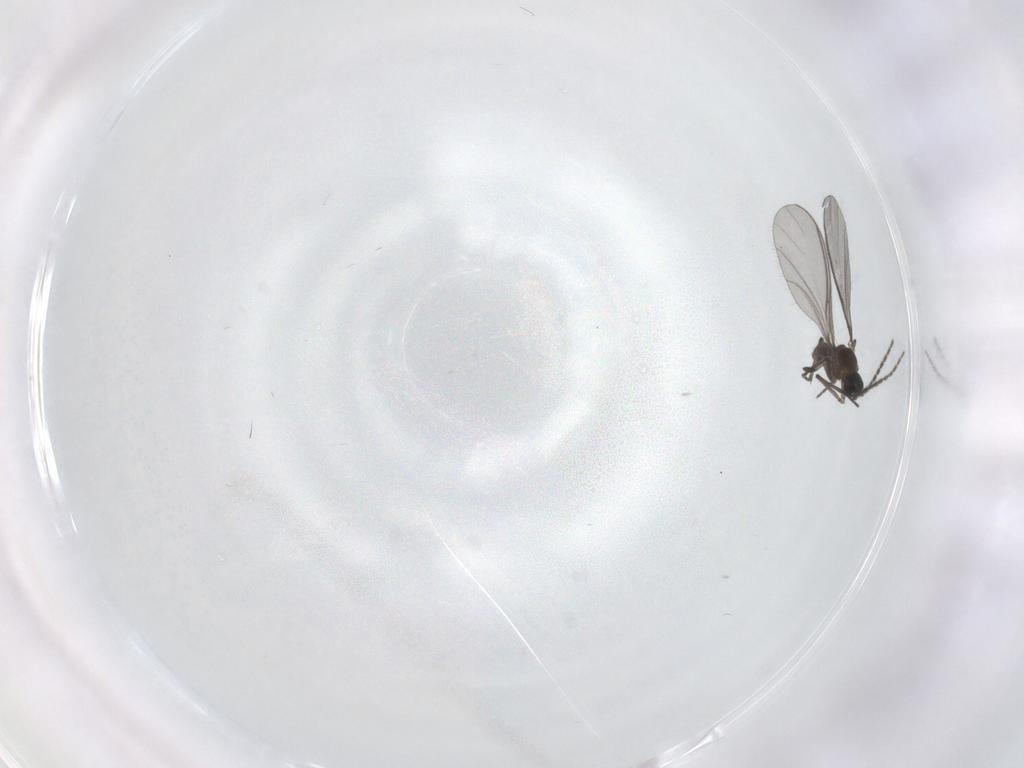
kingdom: Animalia
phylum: Arthropoda
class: Insecta
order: Diptera
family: Sciaridae
